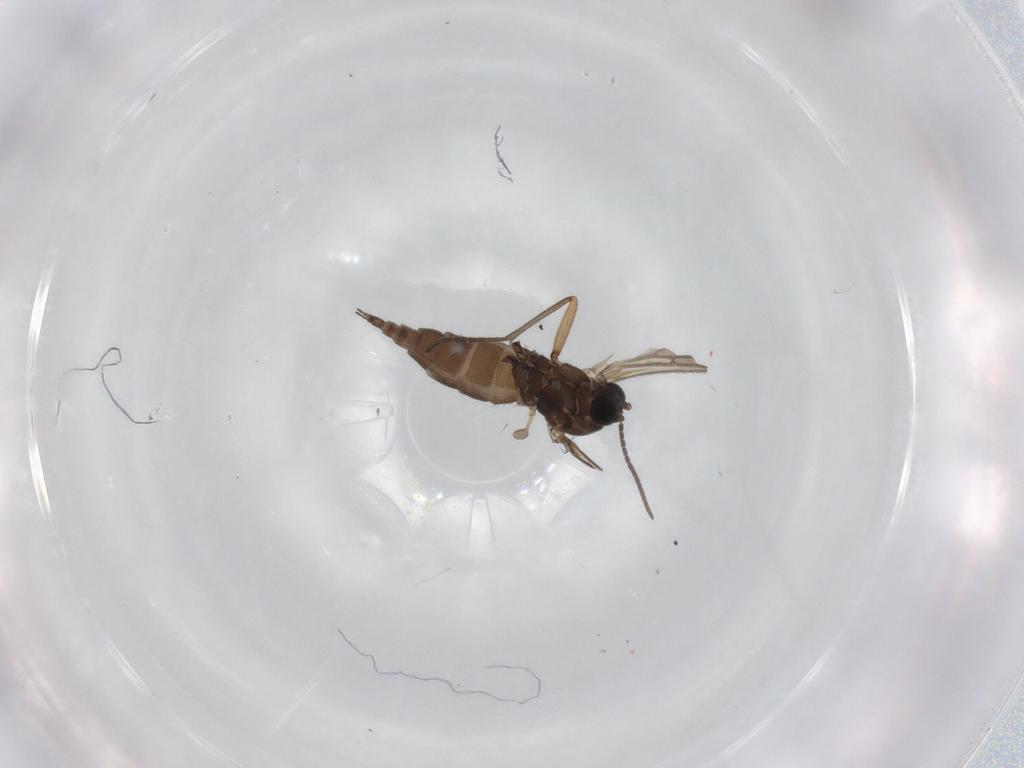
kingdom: Animalia
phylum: Arthropoda
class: Insecta
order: Diptera
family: Sciaridae
